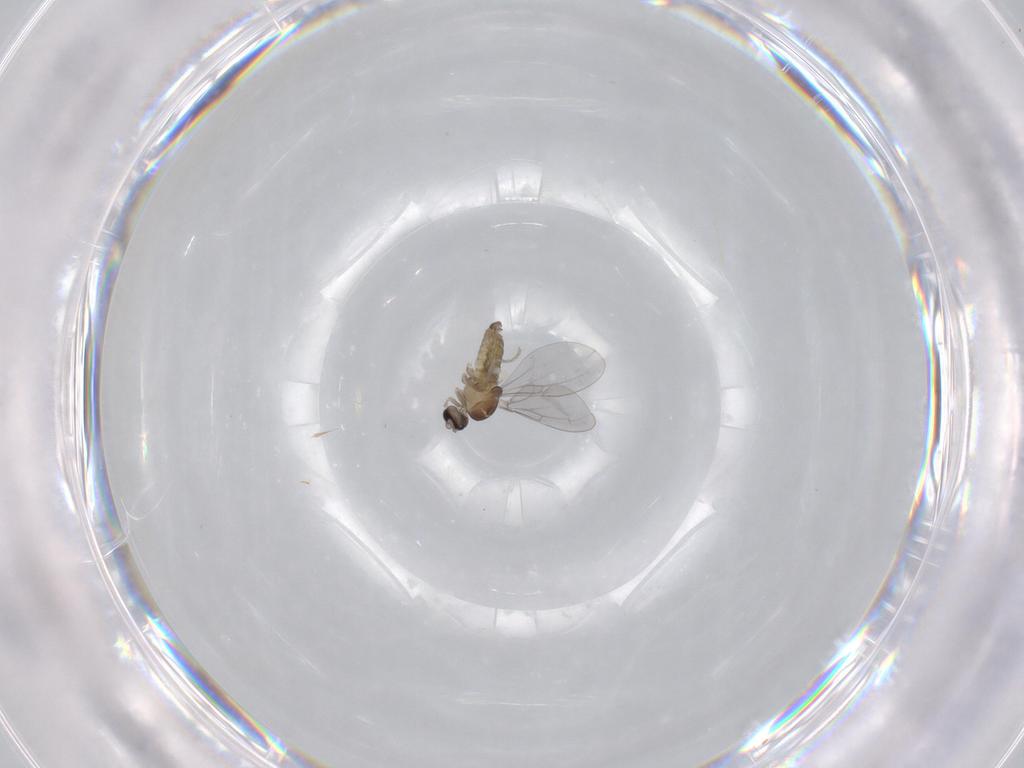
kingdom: Animalia
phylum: Arthropoda
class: Insecta
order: Diptera
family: Cecidomyiidae
